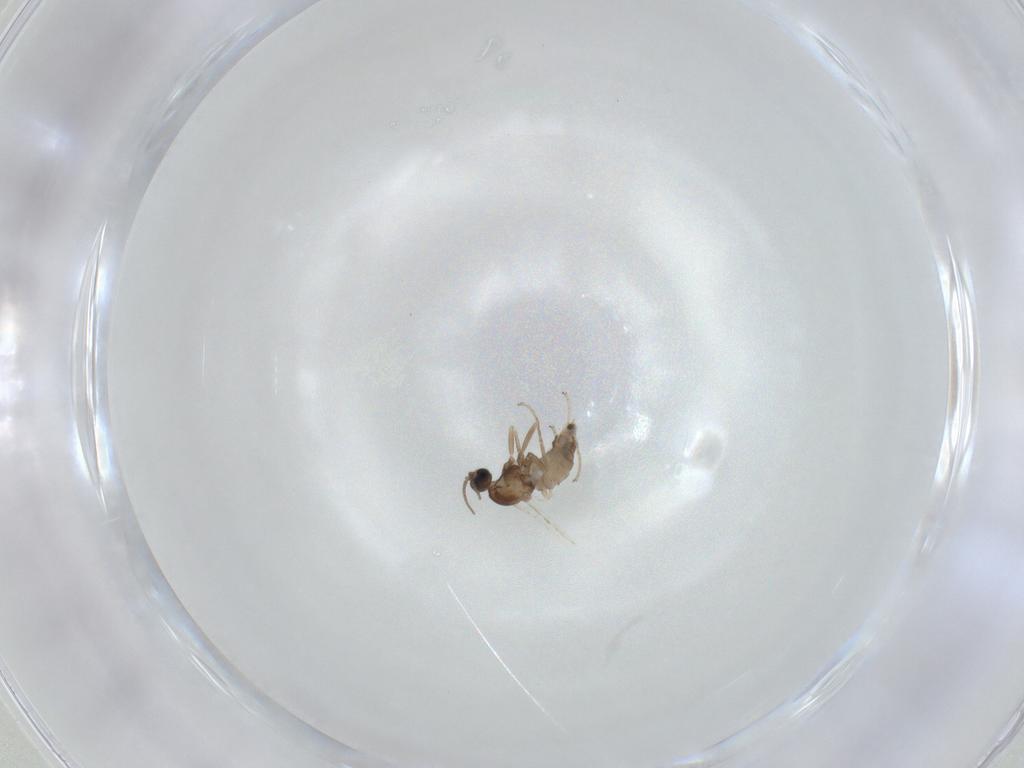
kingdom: Animalia
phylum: Arthropoda
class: Insecta
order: Diptera
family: Cecidomyiidae
